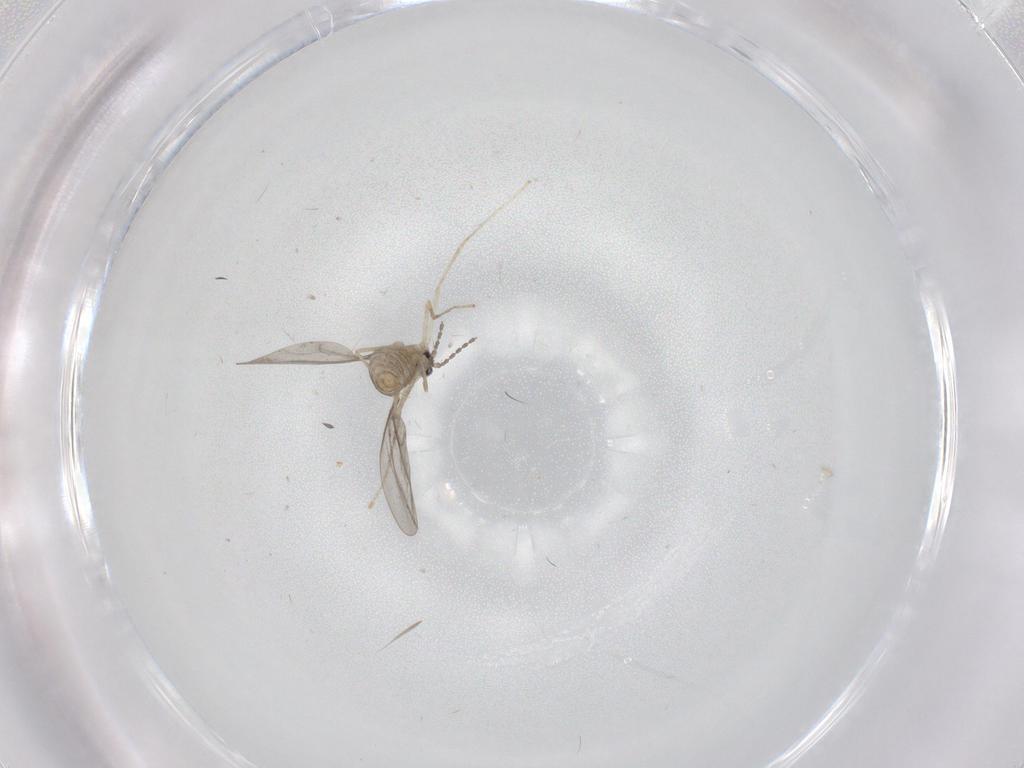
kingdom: Animalia
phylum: Arthropoda
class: Insecta
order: Diptera
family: Cecidomyiidae
